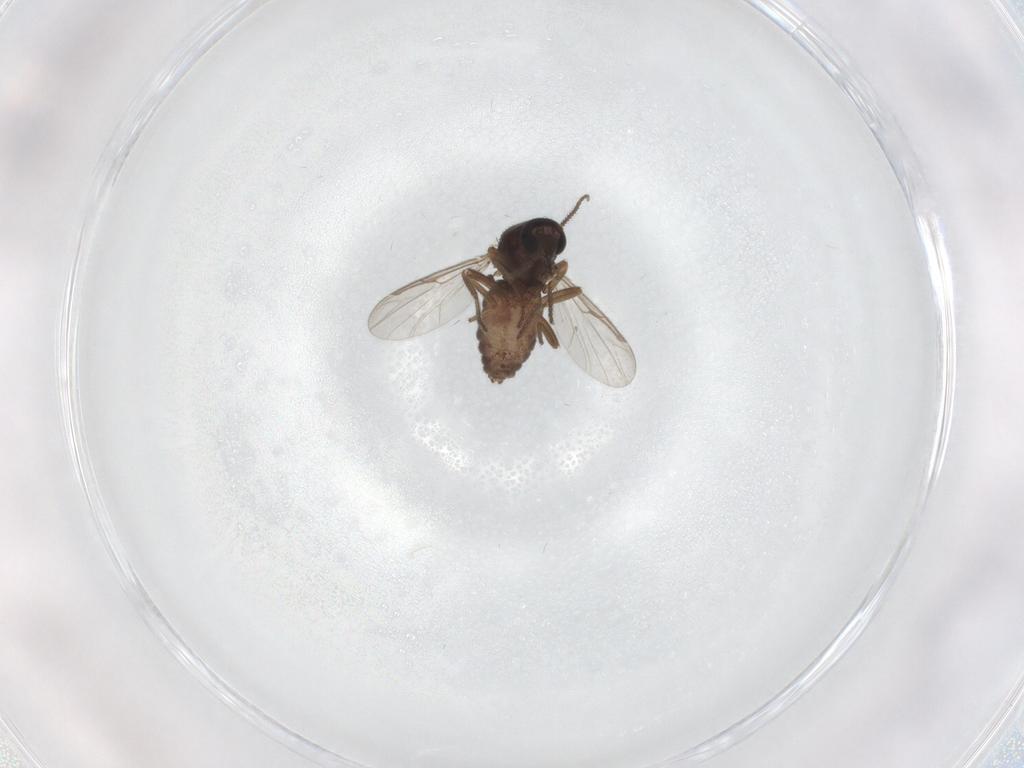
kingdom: Animalia
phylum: Arthropoda
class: Insecta
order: Diptera
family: Ceratopogonidae
